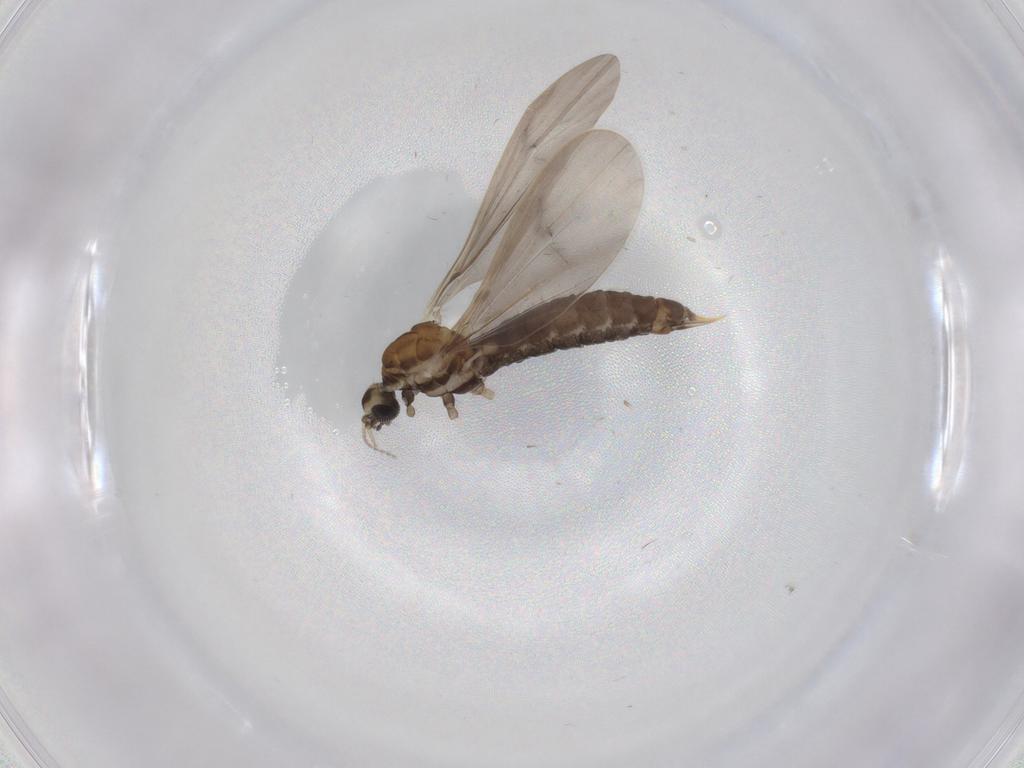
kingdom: Animalia
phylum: Arthropoda
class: Insecta
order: Diptera
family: Limoniidae
